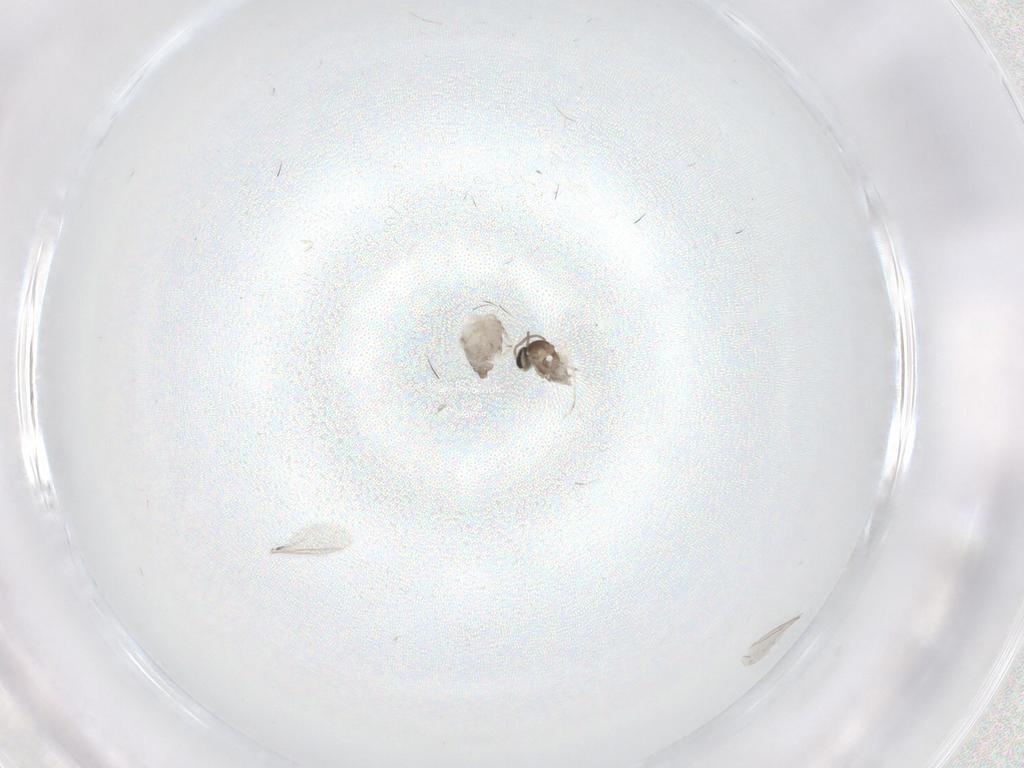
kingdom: Animalia
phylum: Arthropoda
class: Insecta
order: Diptera
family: Cecidomyiidae
